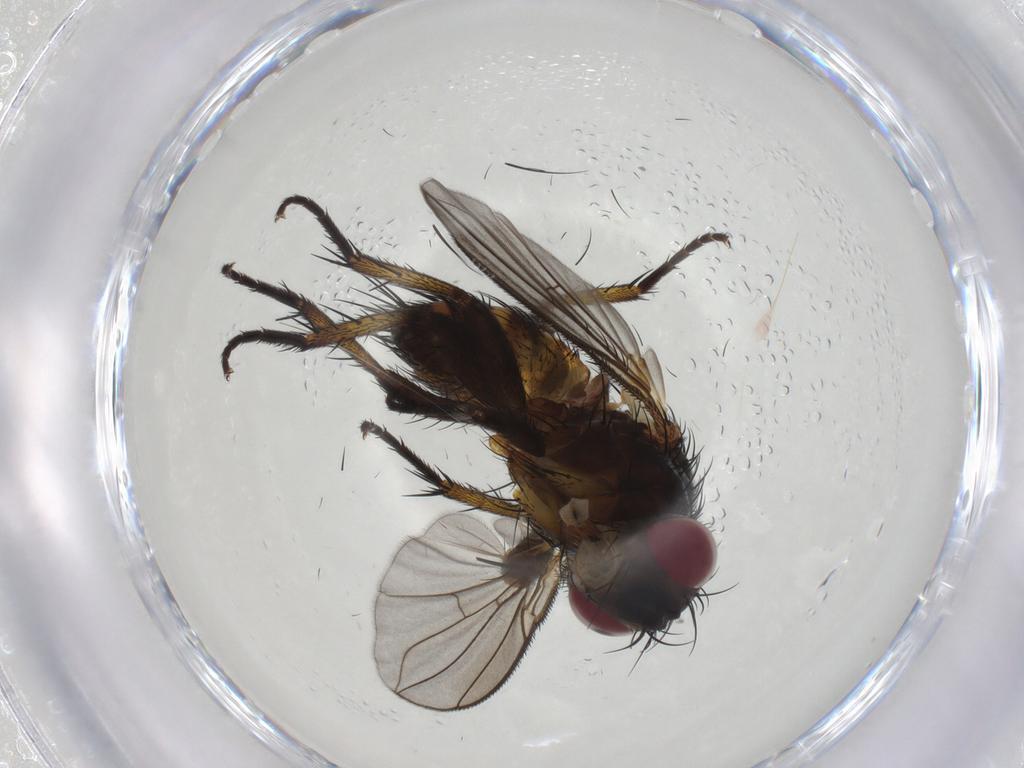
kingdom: Animalia
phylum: Arthropoda
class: Insecta
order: Diptera
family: Tachinidae
